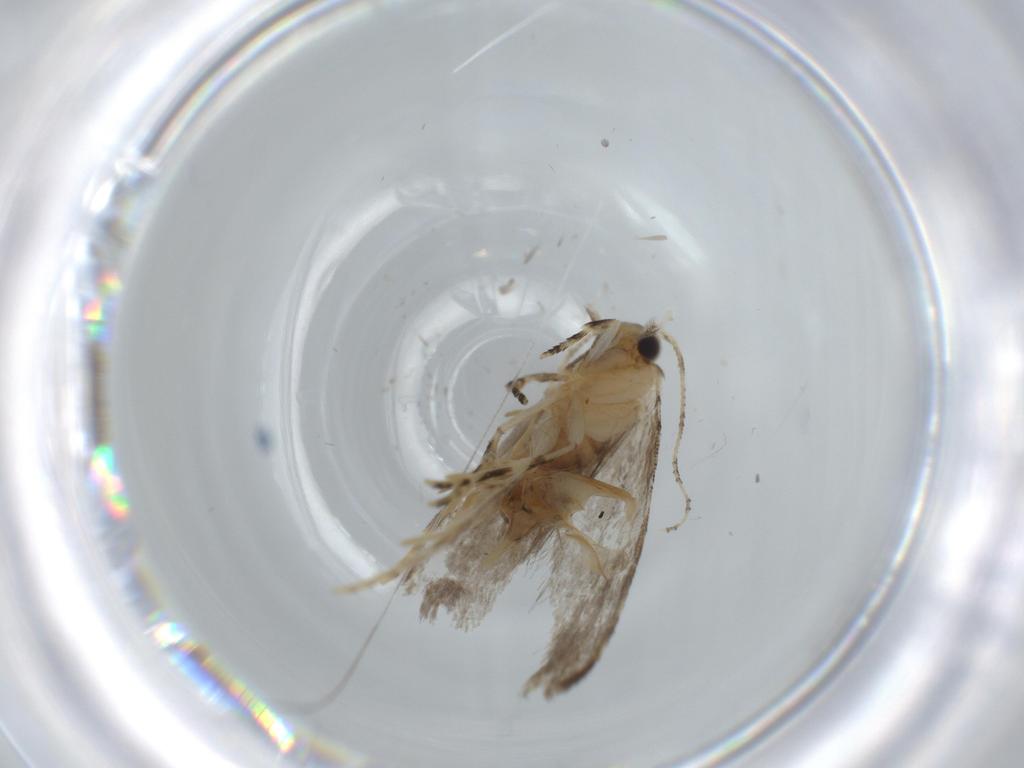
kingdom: Animalia
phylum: Arthropoda
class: Insecta
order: Lepidoptera
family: Tineidae
